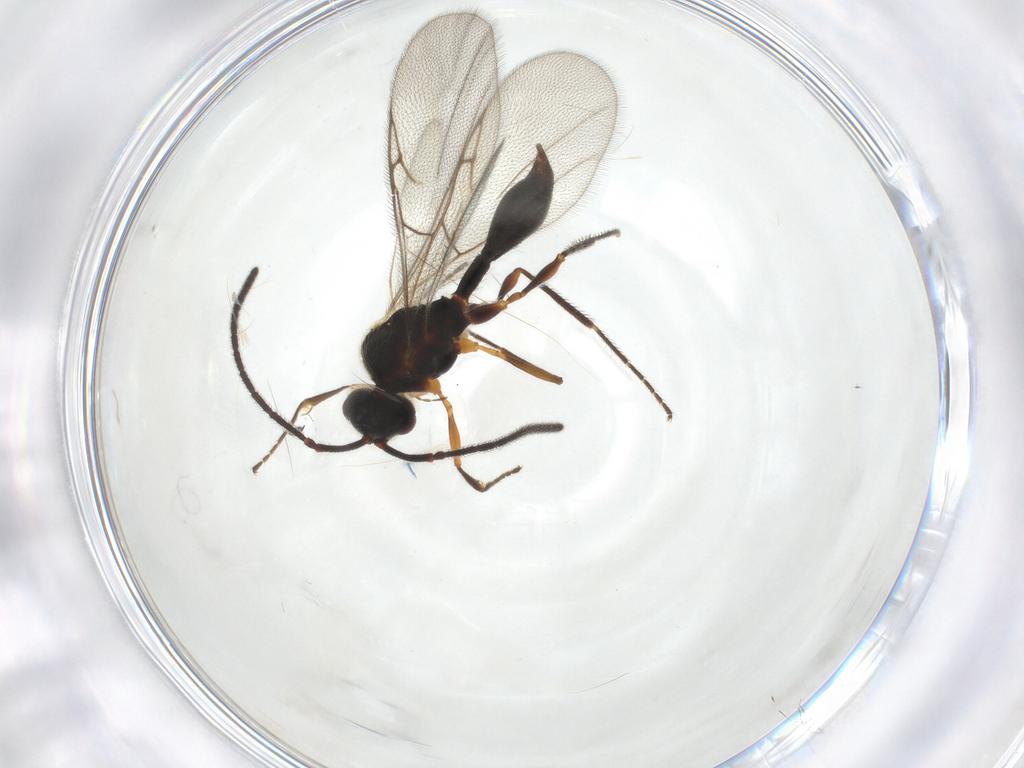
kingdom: Animalia
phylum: Arthropoda
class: Insecta
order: Hymenoptera
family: Platygastridae
